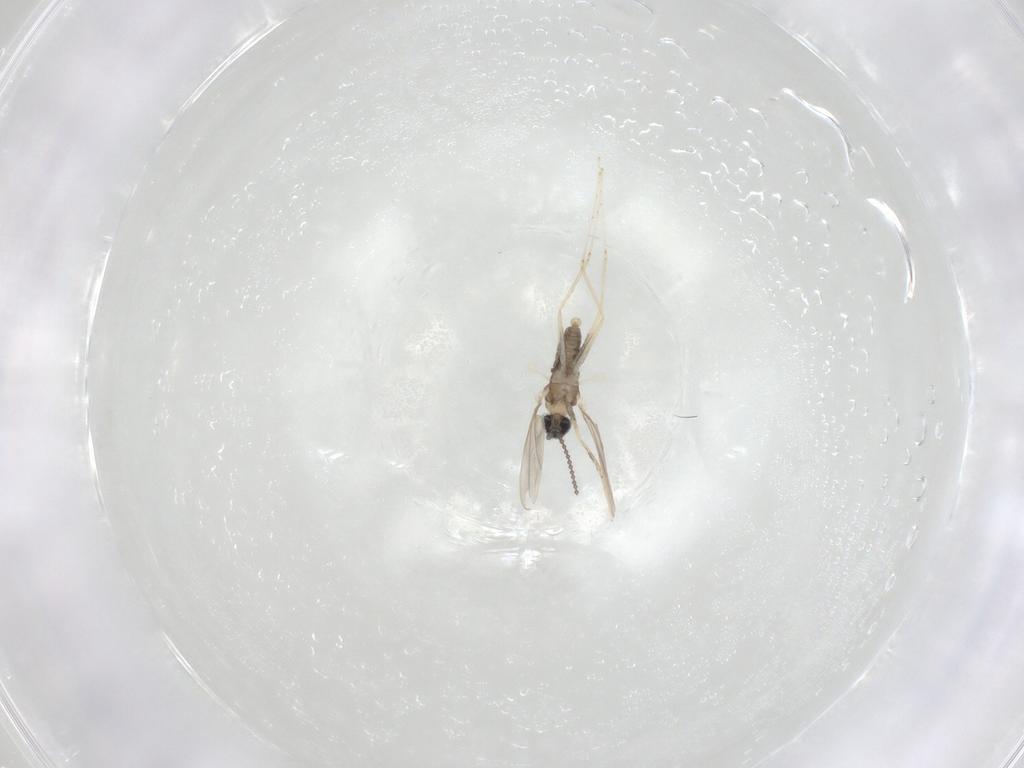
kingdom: Animalia
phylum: Arthropoda
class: Insecta
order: Diptera
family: Cecidomyiidae
